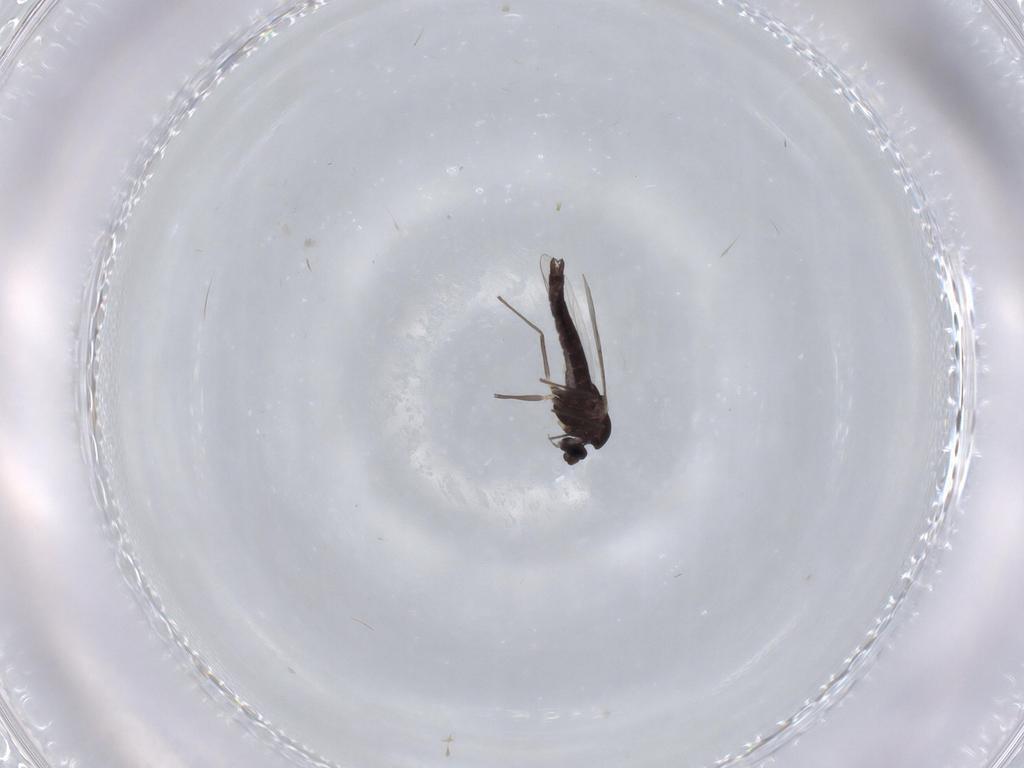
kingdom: Animalia
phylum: Arthropoda
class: Insecta
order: Diptera
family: Chironomidae
